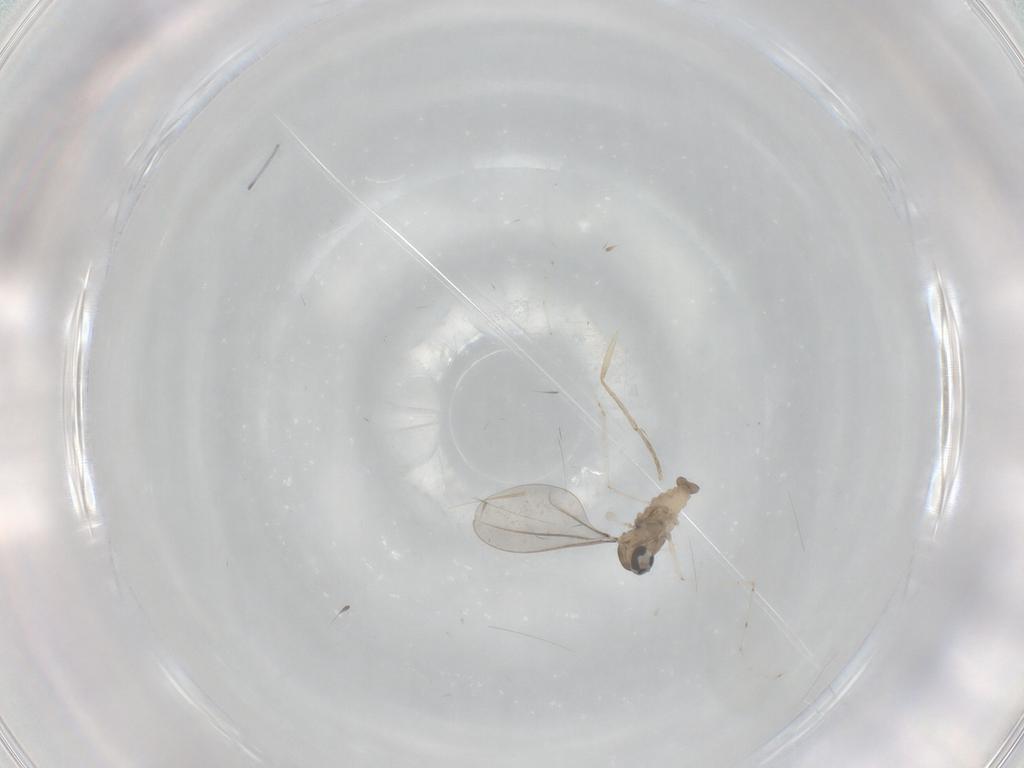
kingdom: Animalia
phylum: Arthropoda
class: Insecta
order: Diptera
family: Cecidomyiidae
